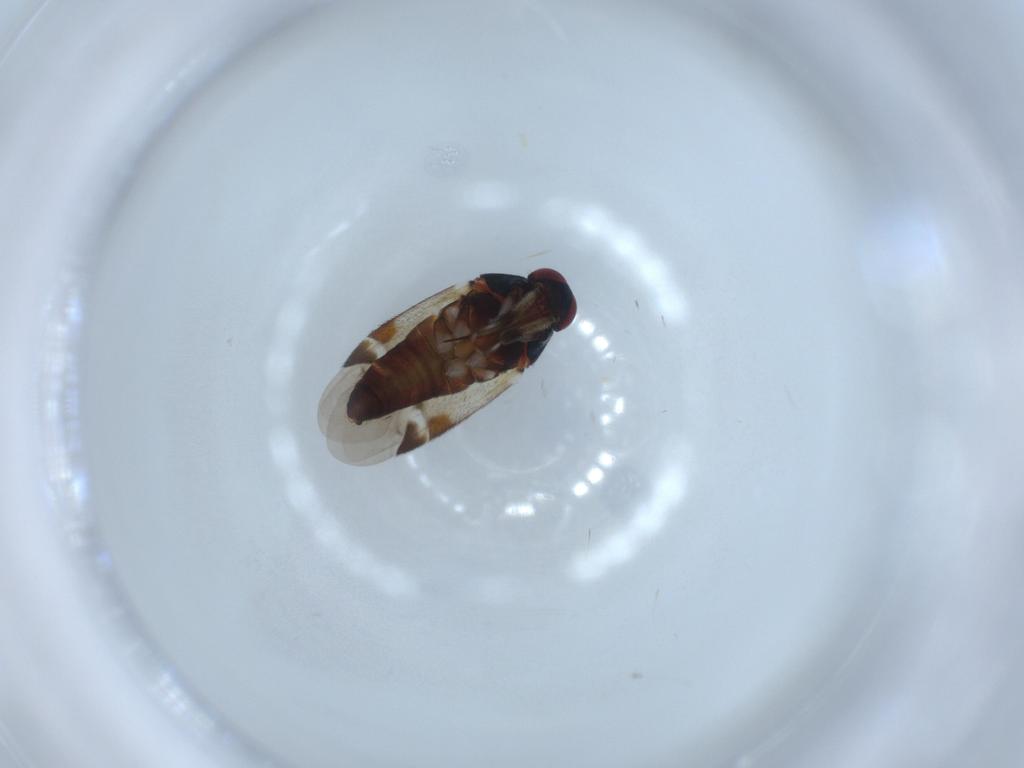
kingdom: Animalia
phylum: Arthropoda
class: Insecta
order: Hemiptera
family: Miridae
